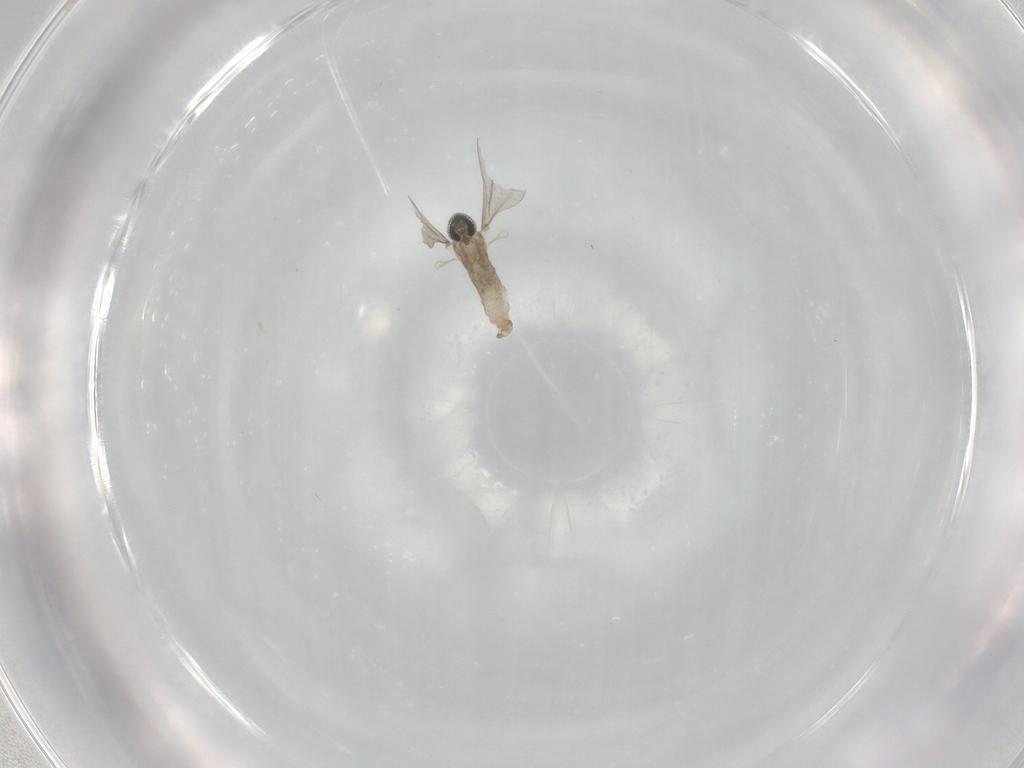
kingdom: Animalia
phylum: Arthropoda
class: Insecta
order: Diptera
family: Cecidomyiidae
